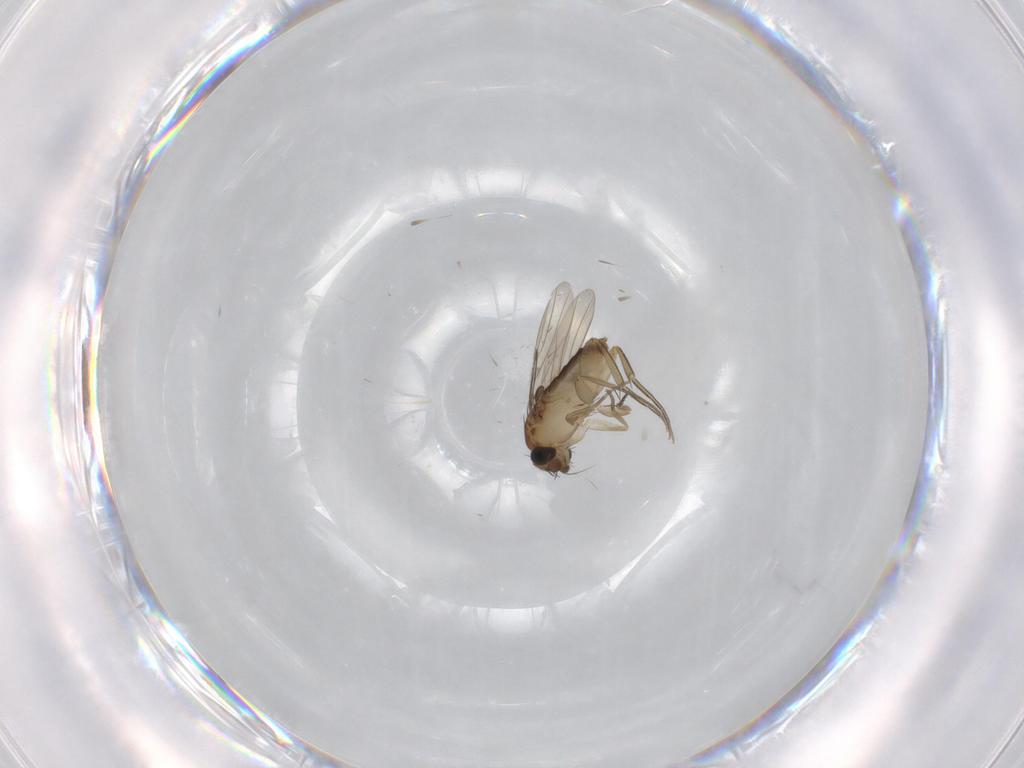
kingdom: Animalia
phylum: Arthropoda
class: Insecta
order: Diptera
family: Phoridae
